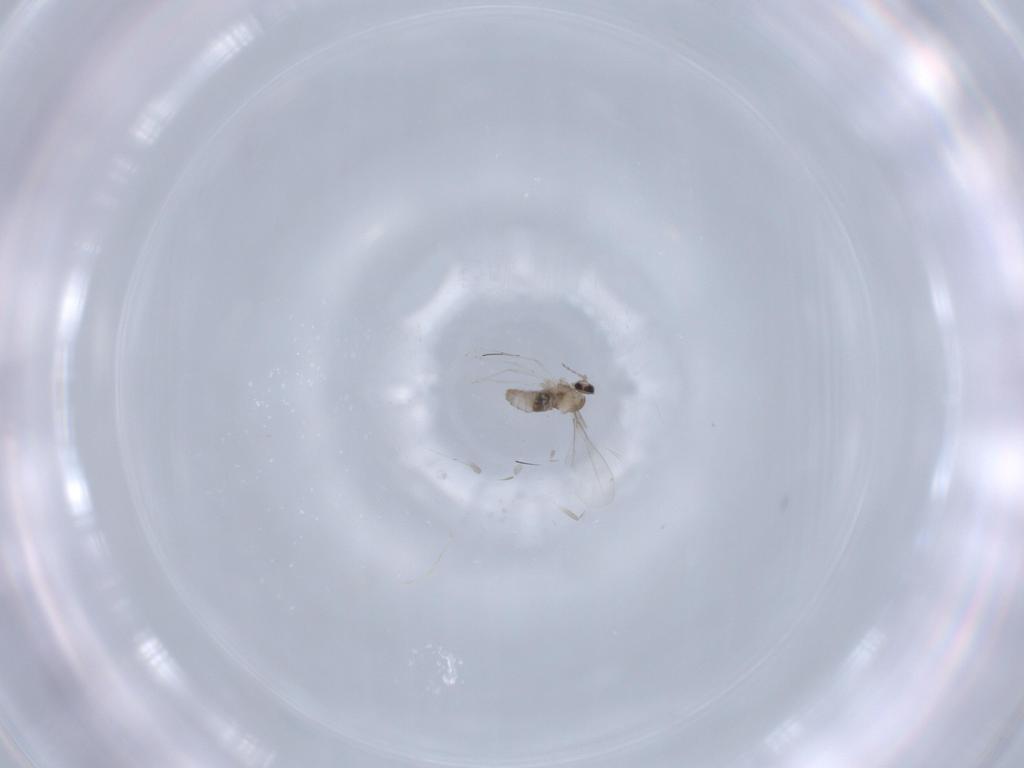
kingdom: Animalia
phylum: Arthropoda
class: Insecta
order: Diptera
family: Cecidomyiidae
